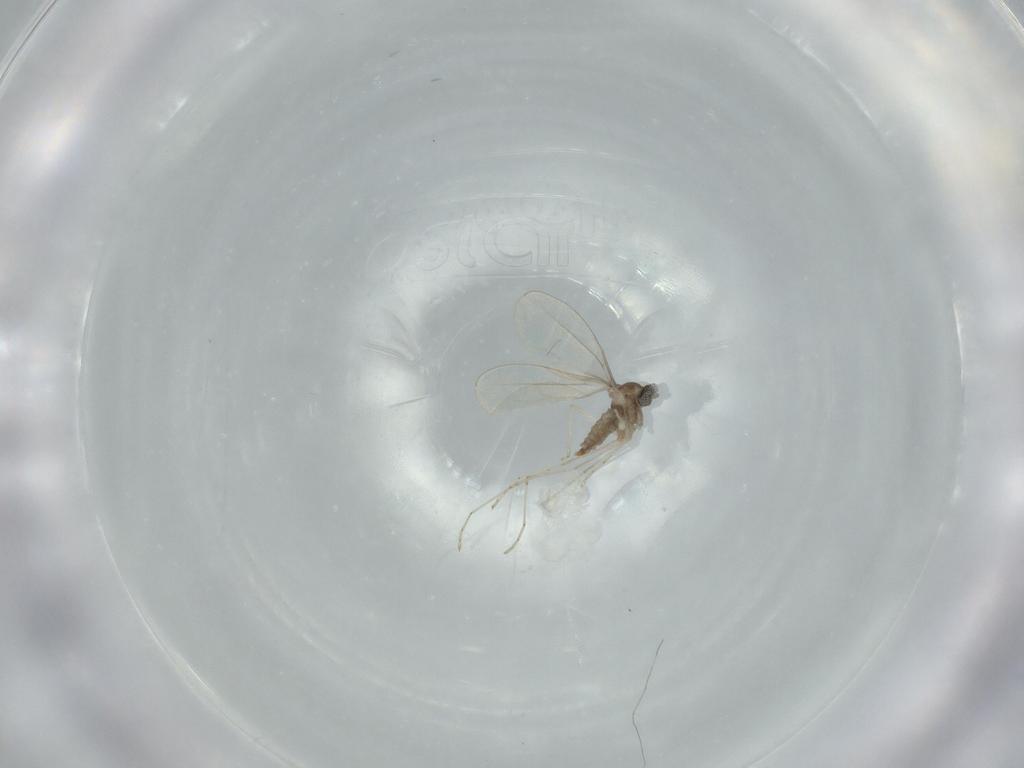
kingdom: Animalia
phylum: Arthropoda
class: Insecta
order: Diptera
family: Cecidomyiidae
